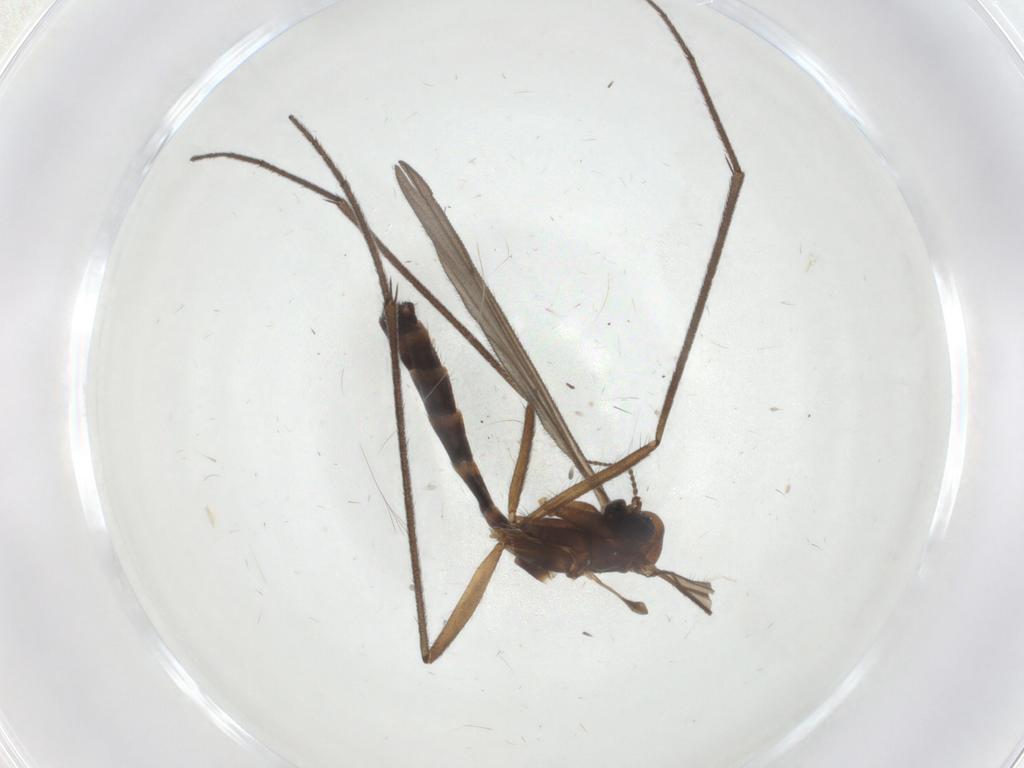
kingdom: Animalia
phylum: Arthropoda
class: Insecta
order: Diptera
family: Keroplatidae
